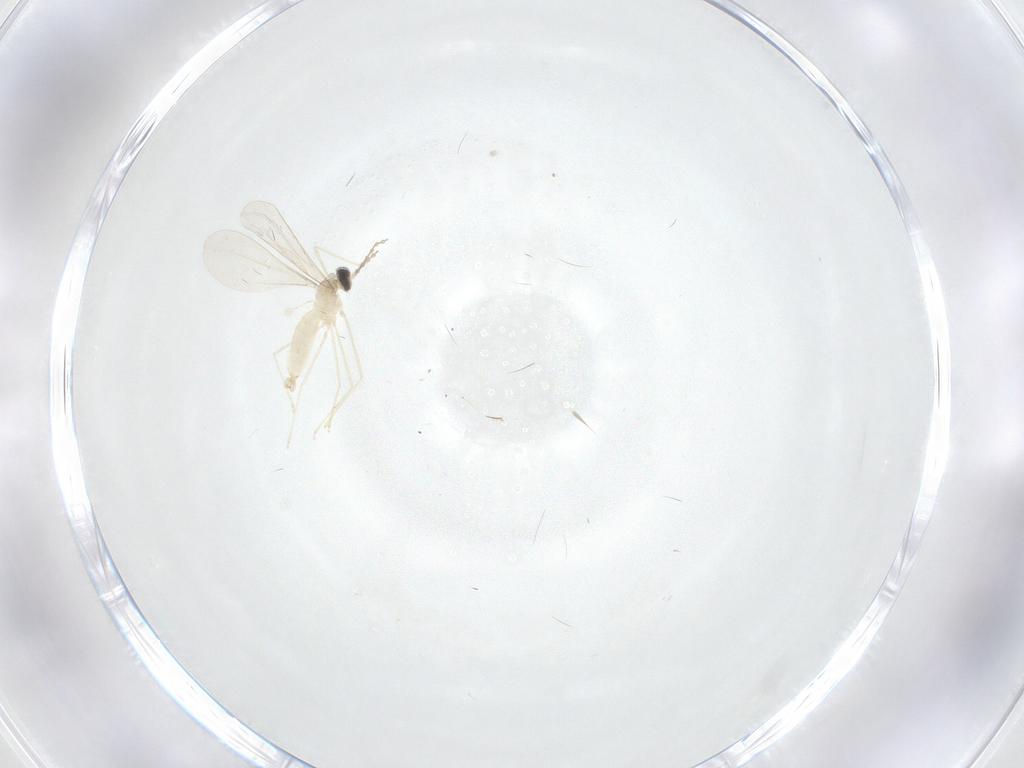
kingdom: Animalia
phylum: Arthropoda
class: Insecta
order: Diptera
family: Cecidomyiidae
